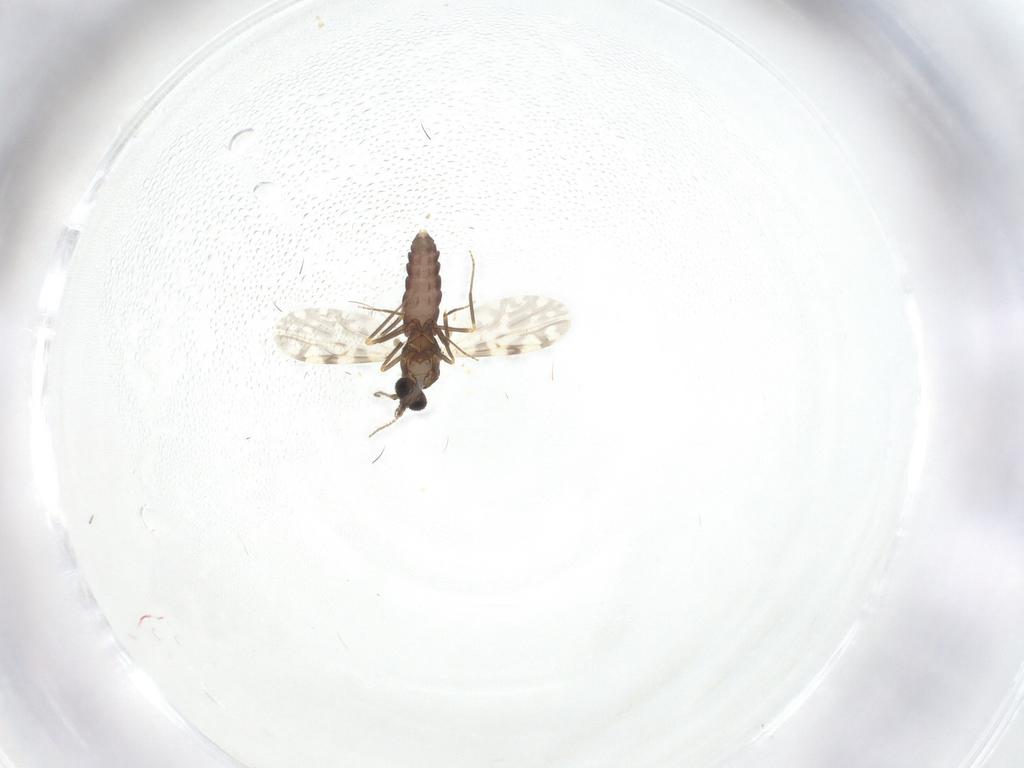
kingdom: Animalia
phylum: Arthropoda
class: Insecta
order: Diptera
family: Ceratopogonidae
